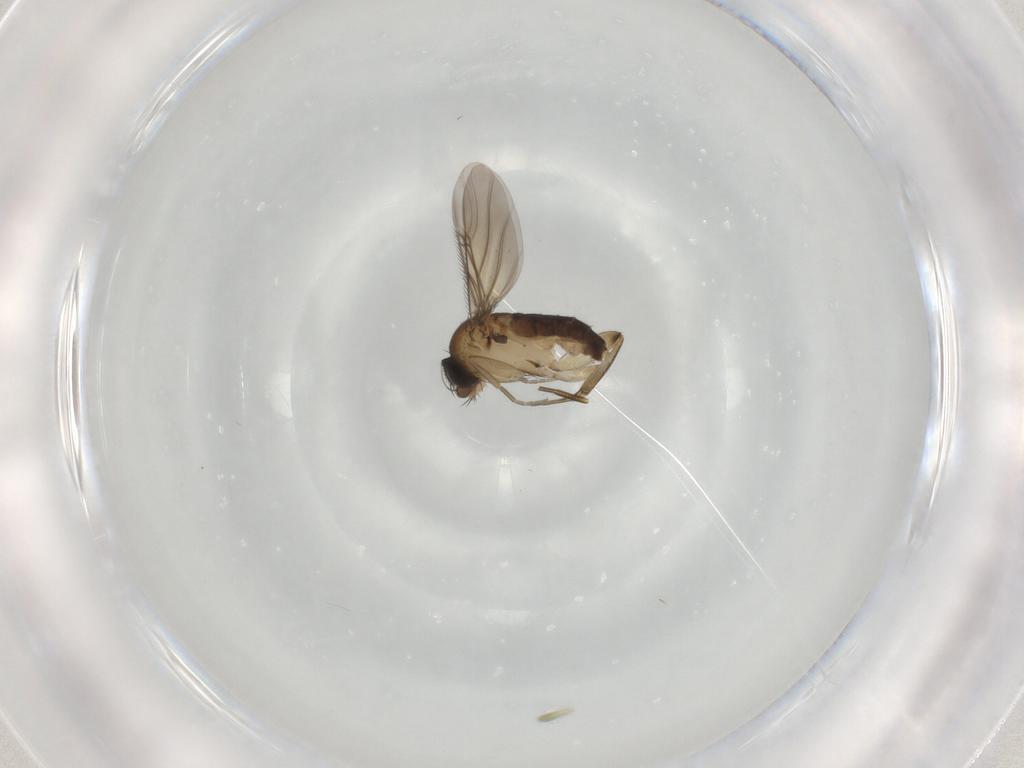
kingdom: Animalia
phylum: Arthropoda
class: Insecta
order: Diptera
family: Phoridae
